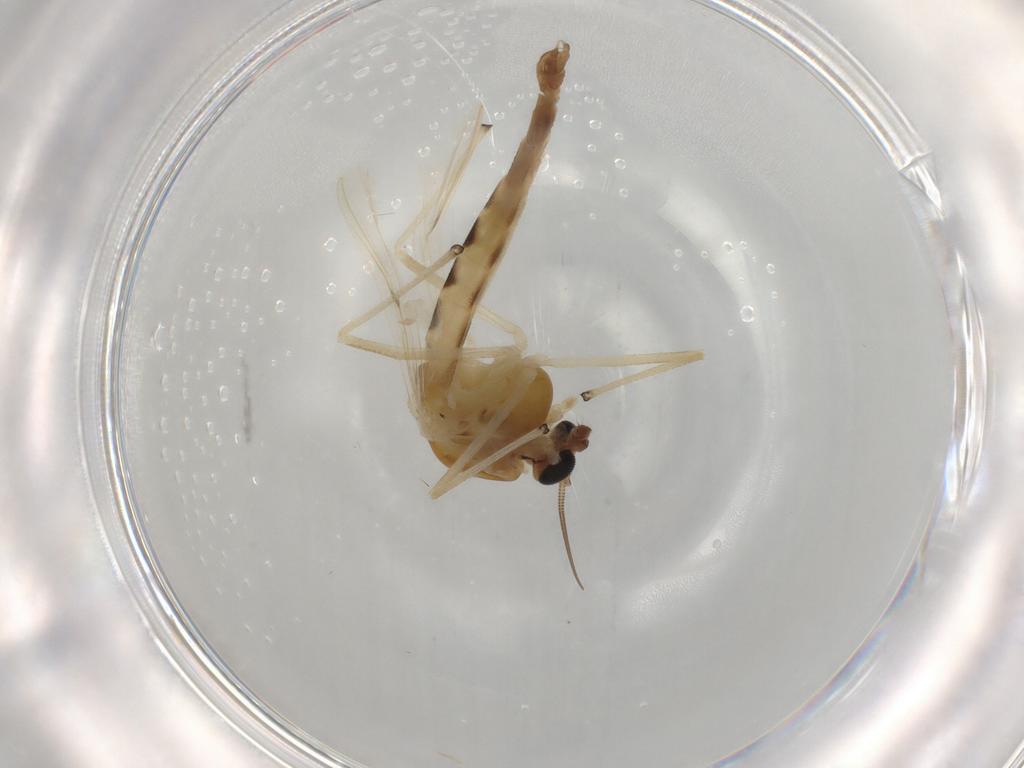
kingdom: Animalia
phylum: Arthropoda
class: Insecta
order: Diptera
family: Chironomidae
